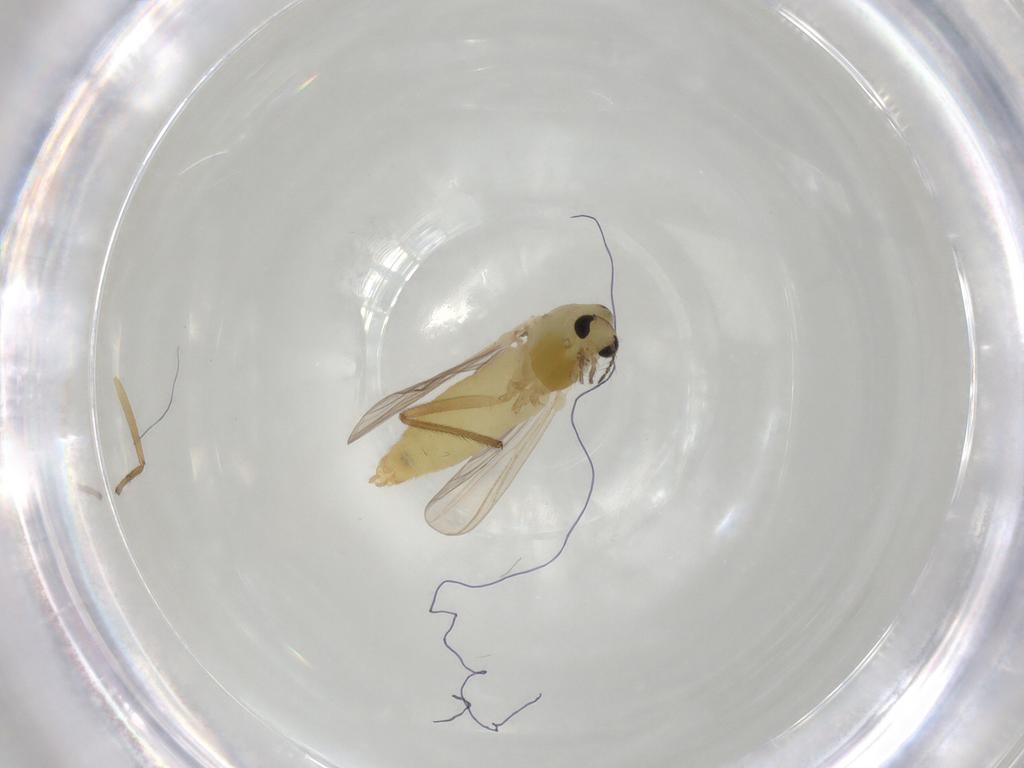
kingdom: Animalia
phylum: Arthropoda
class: Insecta
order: Diptera
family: Chironomidae
